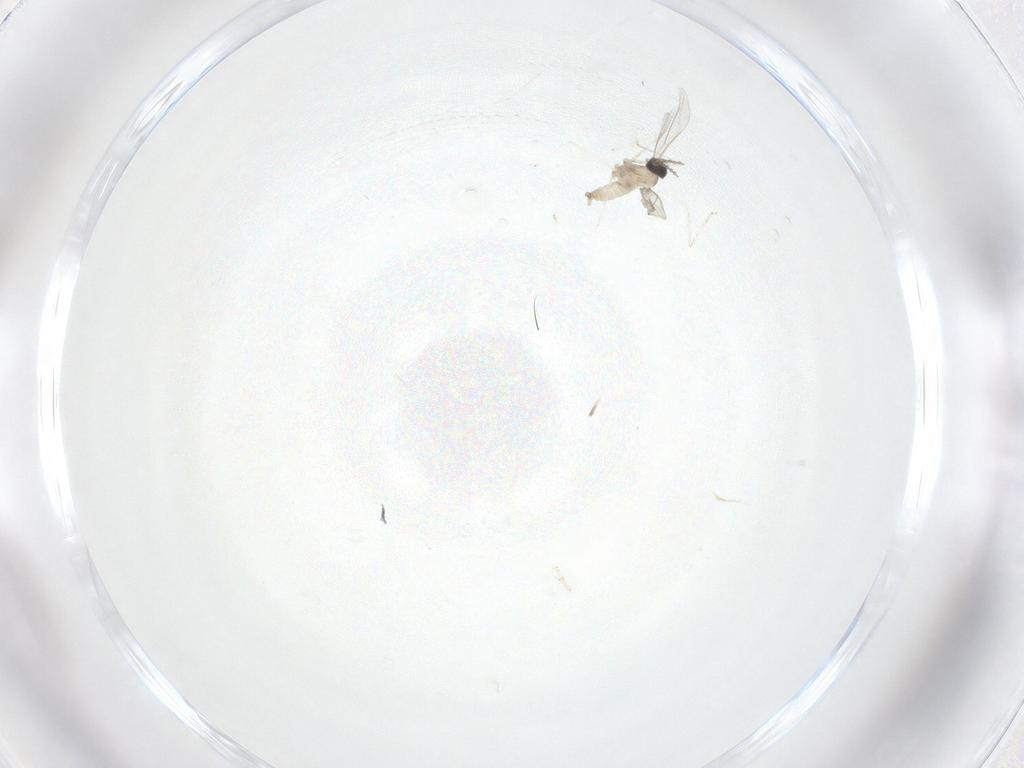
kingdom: Animalia
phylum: Arthropoda
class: Insecta
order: Diptera
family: Cecidomyiidae
